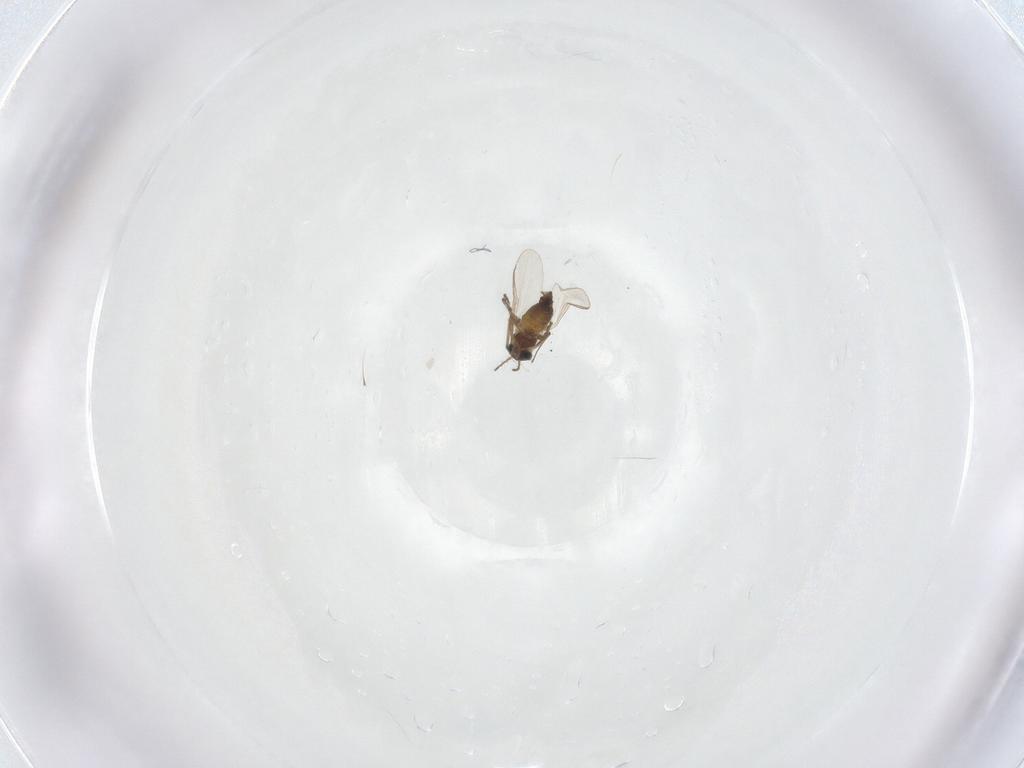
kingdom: Animalia
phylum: Arthropoda
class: Insecta
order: Diptera
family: Chironomidae
